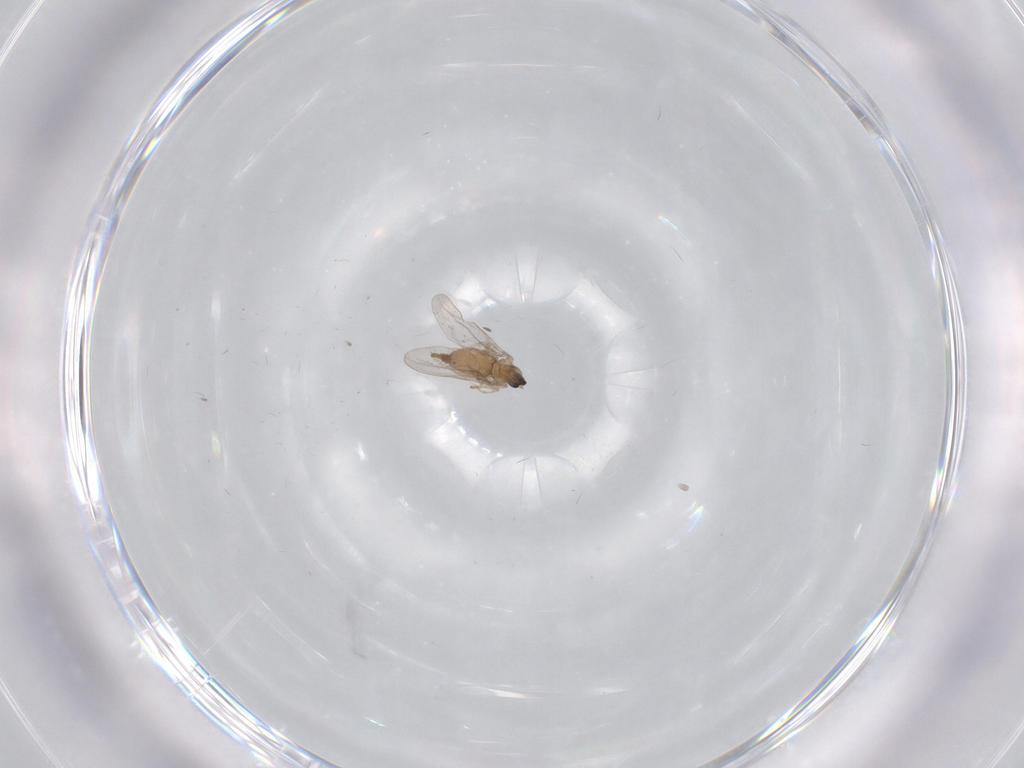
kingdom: Animalia
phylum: Arthropoda
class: Insecta
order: Diptera
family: Cecidomyiidae
